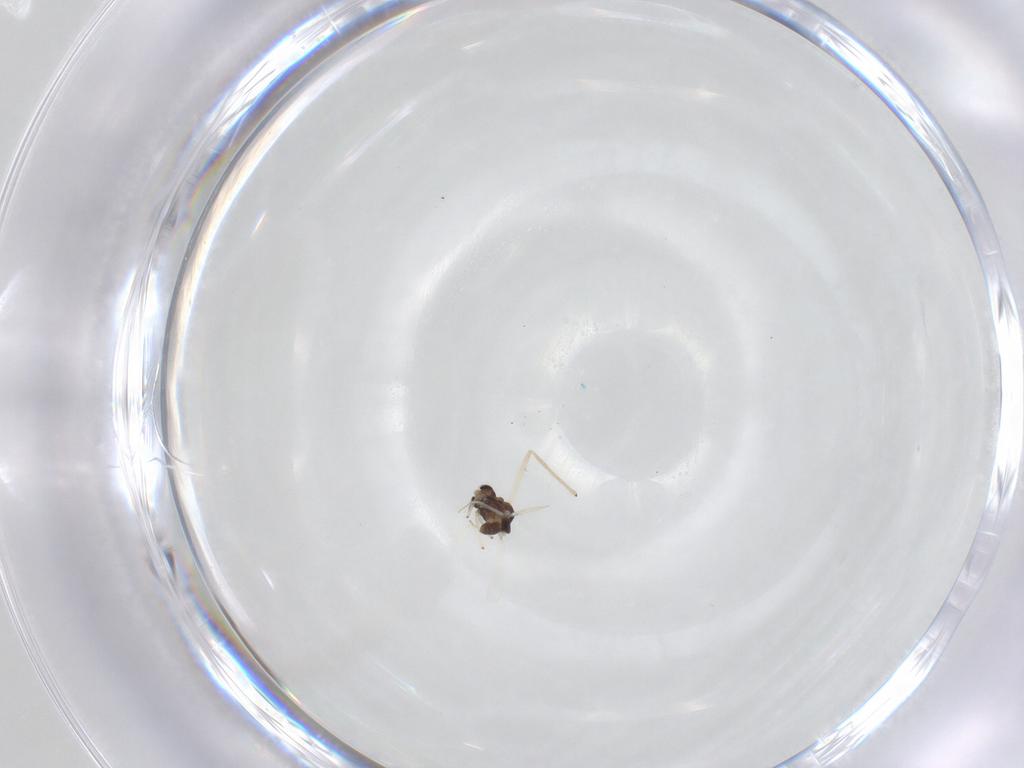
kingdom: Animalia
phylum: Arthropoda
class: Insecta
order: Diptera
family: Chironomidae
